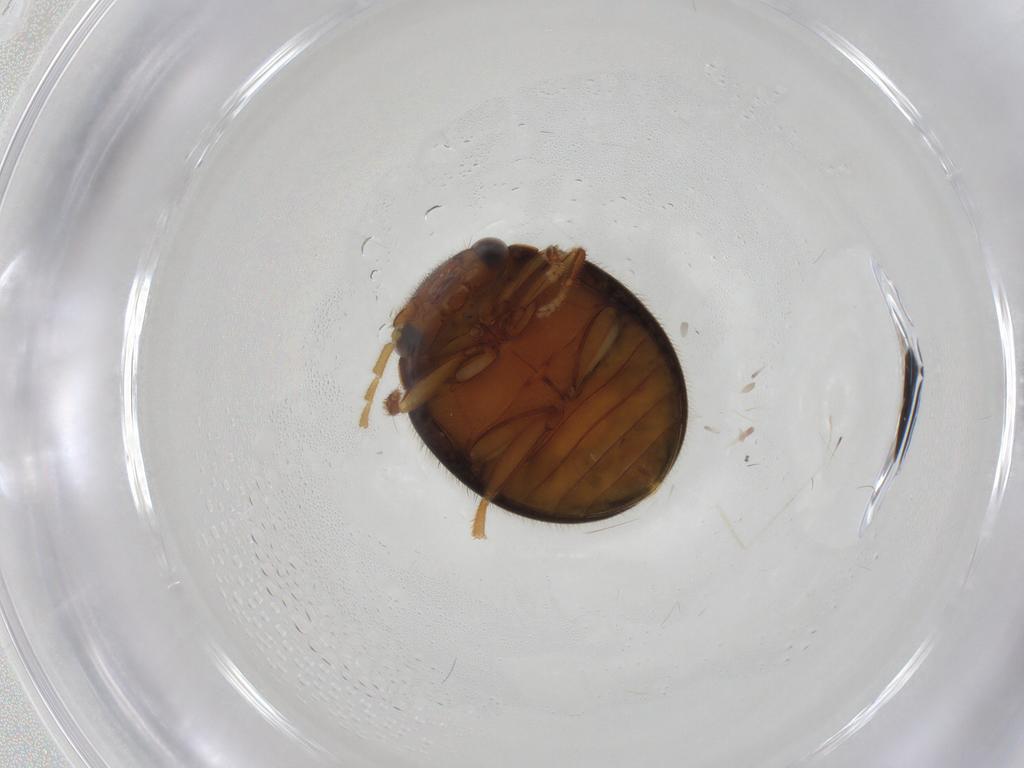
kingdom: Animalia
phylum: Arthropoda
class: Insecta
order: Coleoptera
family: Scirtidae
